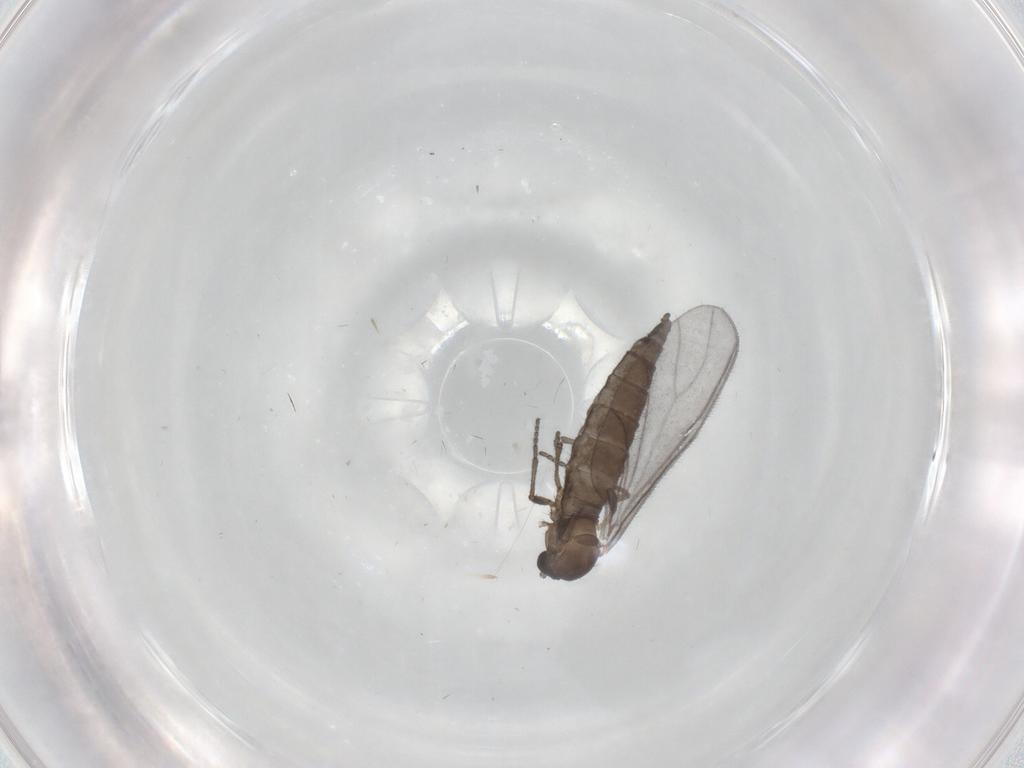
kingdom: Animalia
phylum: Arthropoda
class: Insecta
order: Diptera
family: Sciaridae
